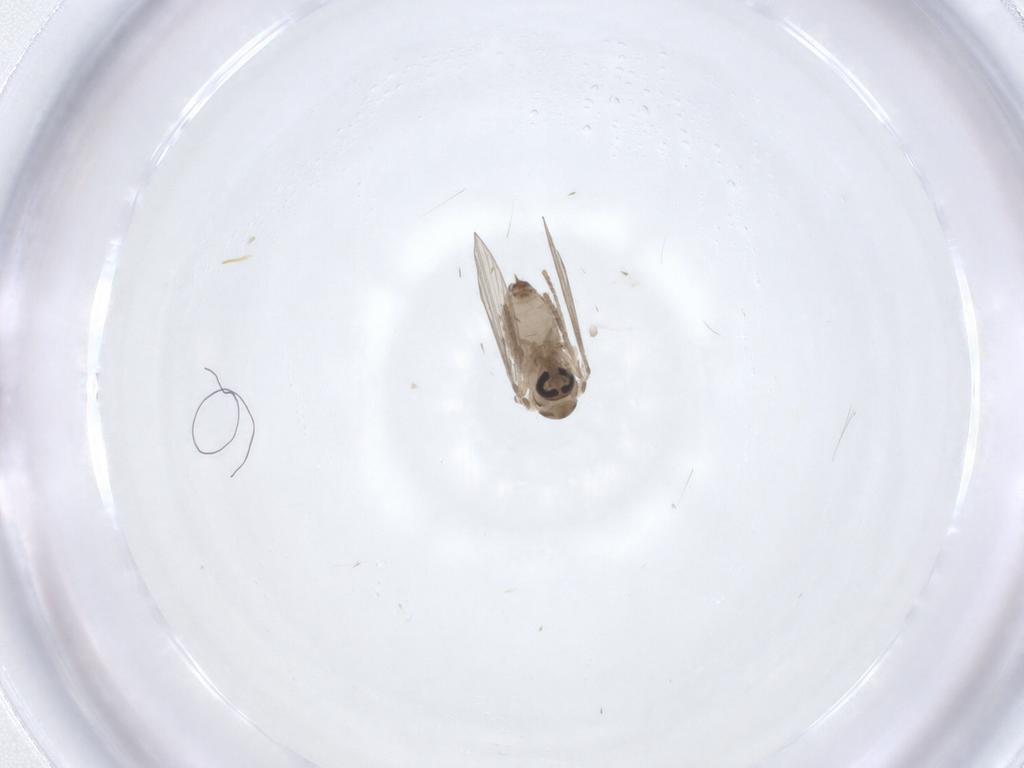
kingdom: Animalia
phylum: Arthropoda
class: Insecta
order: Diptera
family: Psychodidae
